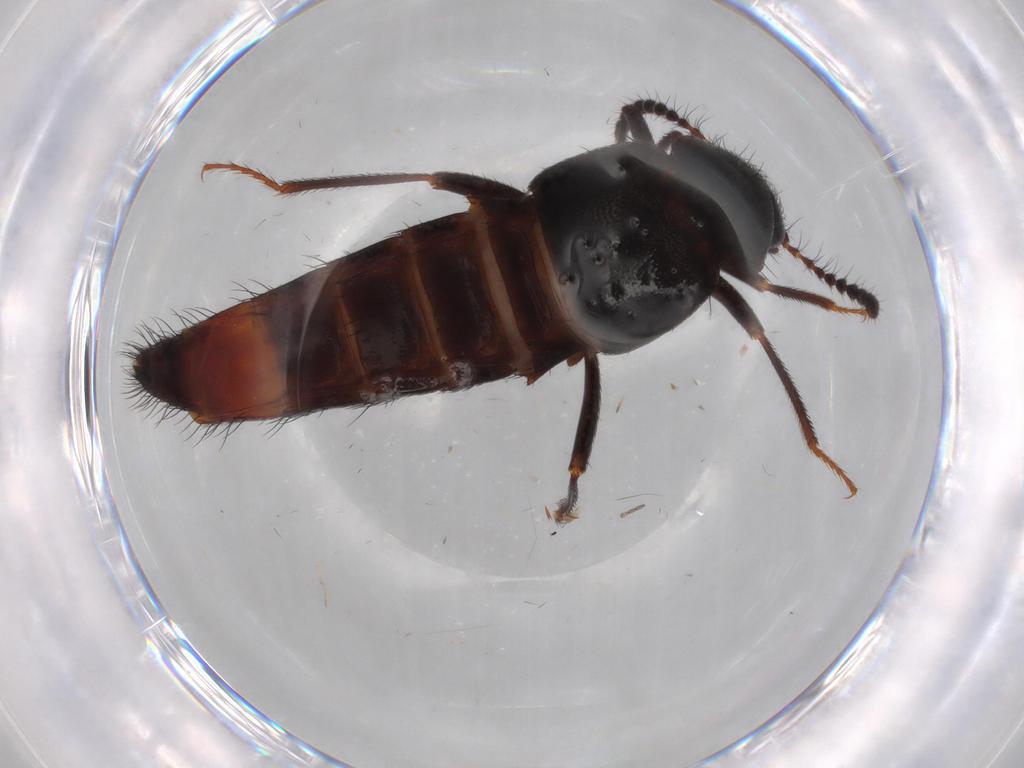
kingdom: Animalia
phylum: Arthropoda
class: Insecta
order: Coleoptera
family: Staphylinidae
